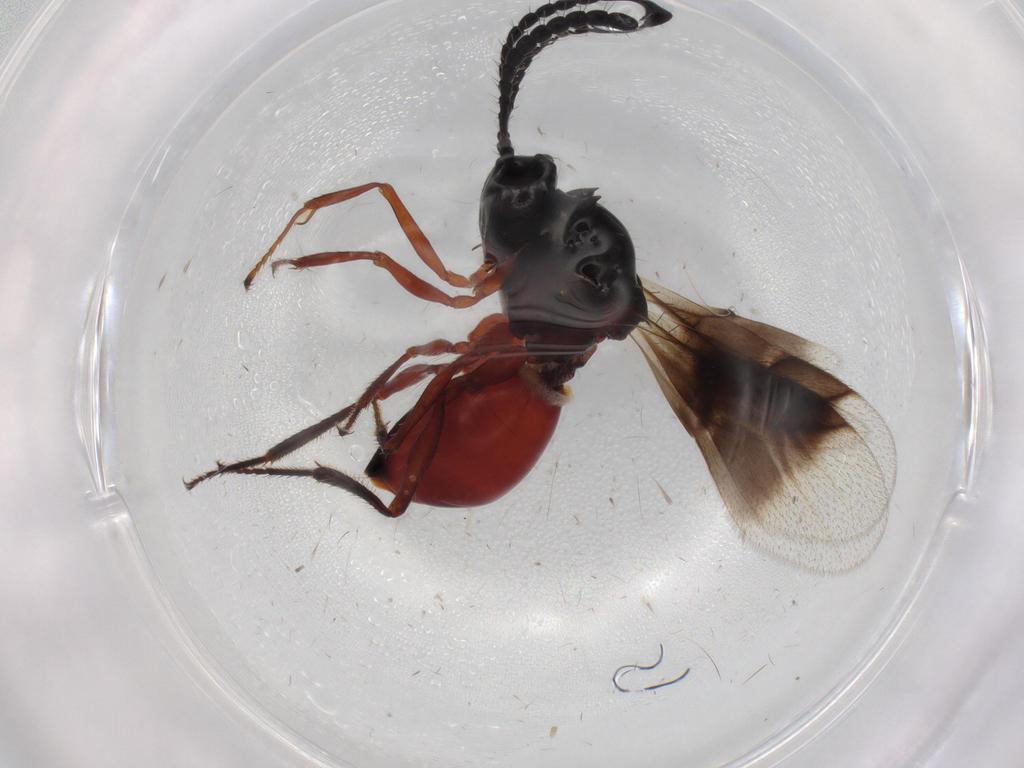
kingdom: Animalia
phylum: Arthropoda
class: Insecta
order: Hymenoptera
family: Figitidae
